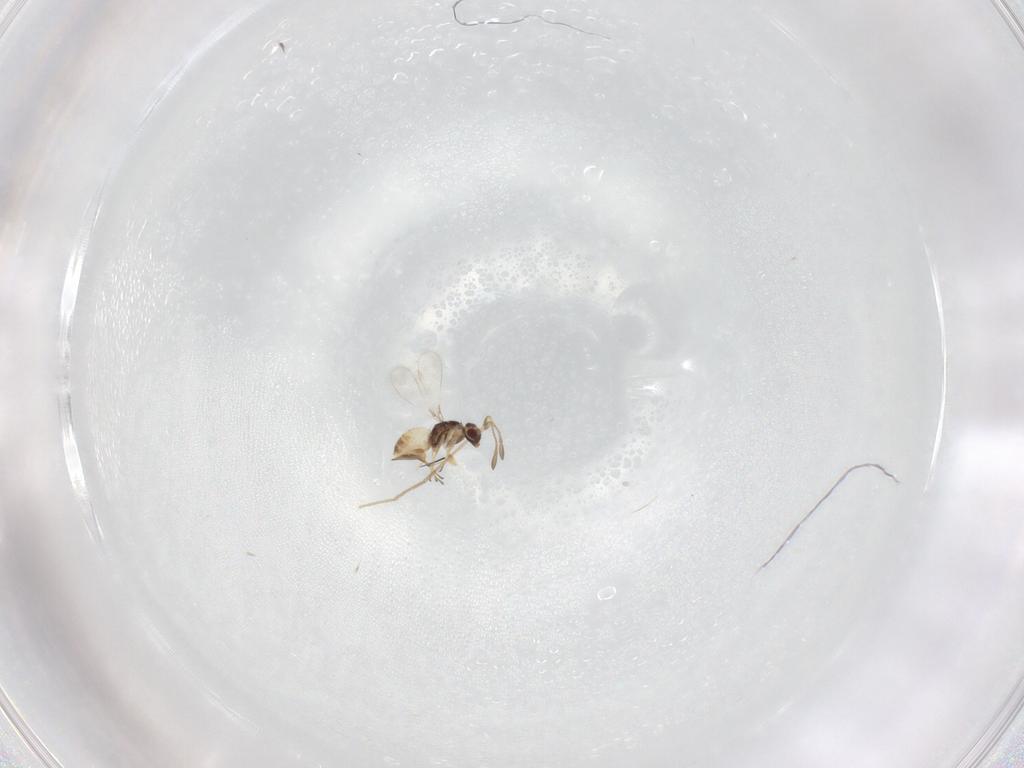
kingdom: Animalia
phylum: Arthropoda
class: Insecta
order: Hymenoptera
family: Mymaridae
